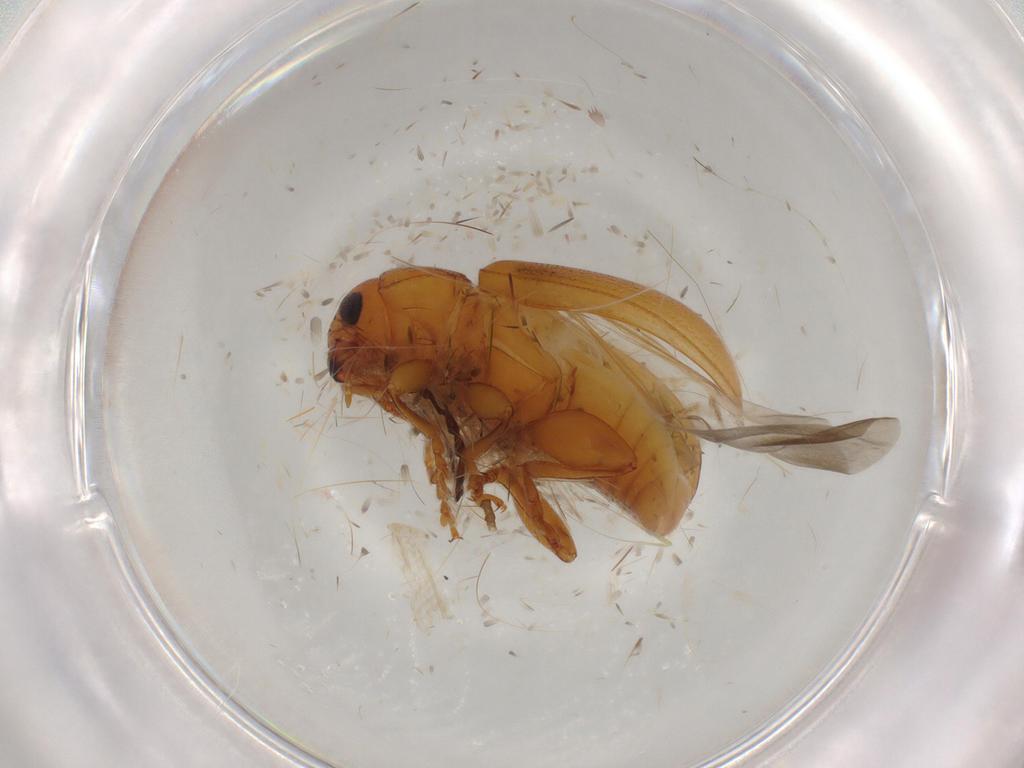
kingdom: Animalia
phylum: Arthropoda
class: Insecta
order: Coleoptera
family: Chrysomelidae
